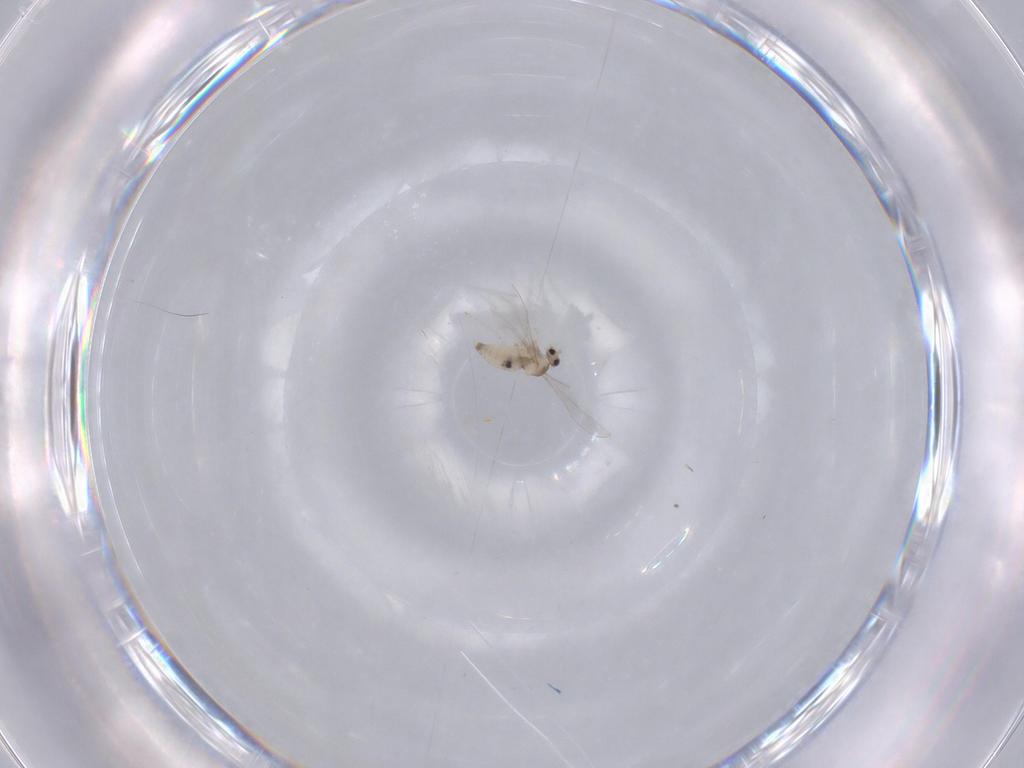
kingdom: Animalia
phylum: Arthropoda
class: Insecta
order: Diptera
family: Cecidomyiidae
